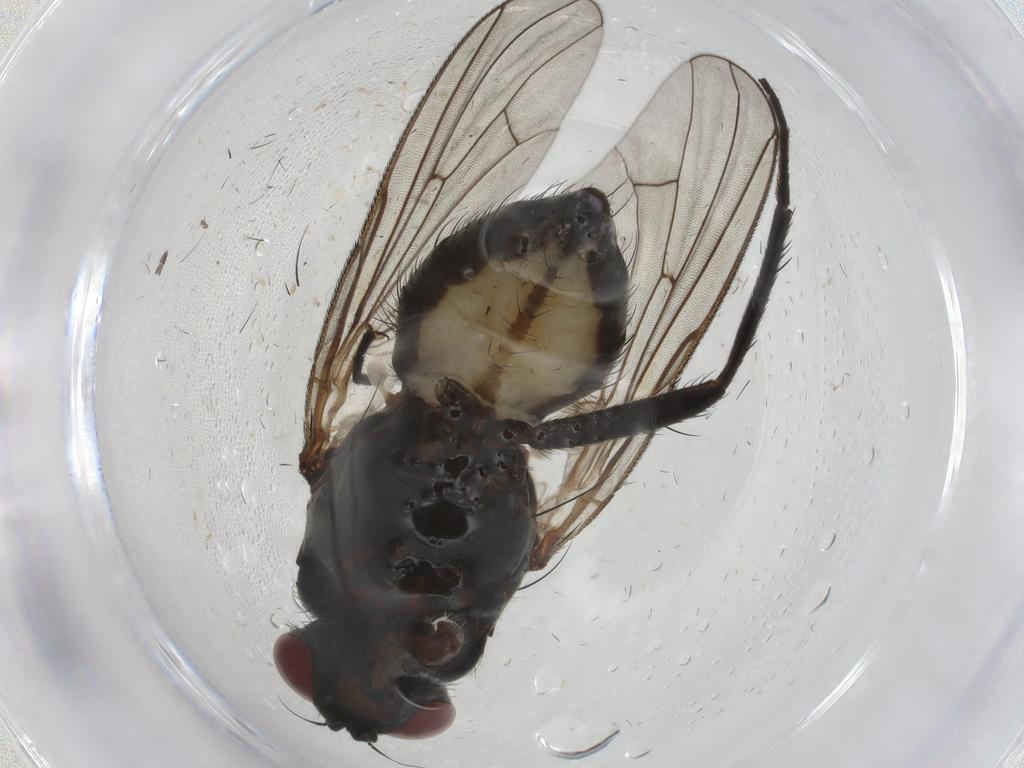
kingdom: Animalia
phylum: Arthropoda
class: Insecta
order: Diptera
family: Anthomyiidae
